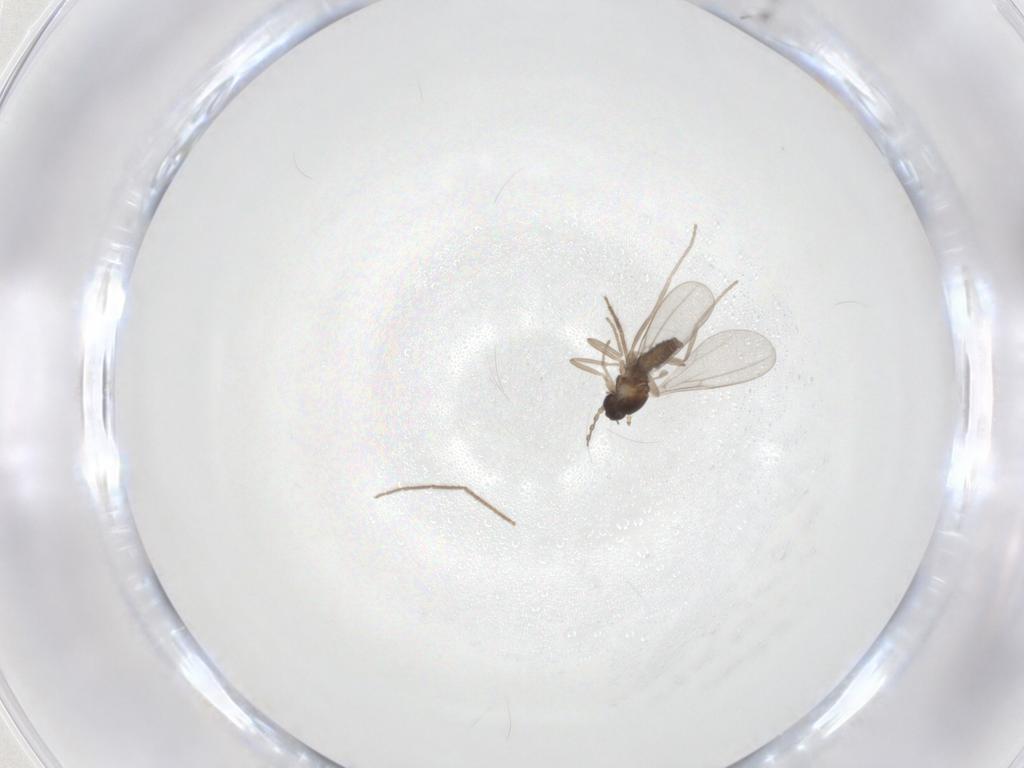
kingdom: Animalia
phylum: Arthropoda
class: Insecta
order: Diptera
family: Cecidomyiidae
